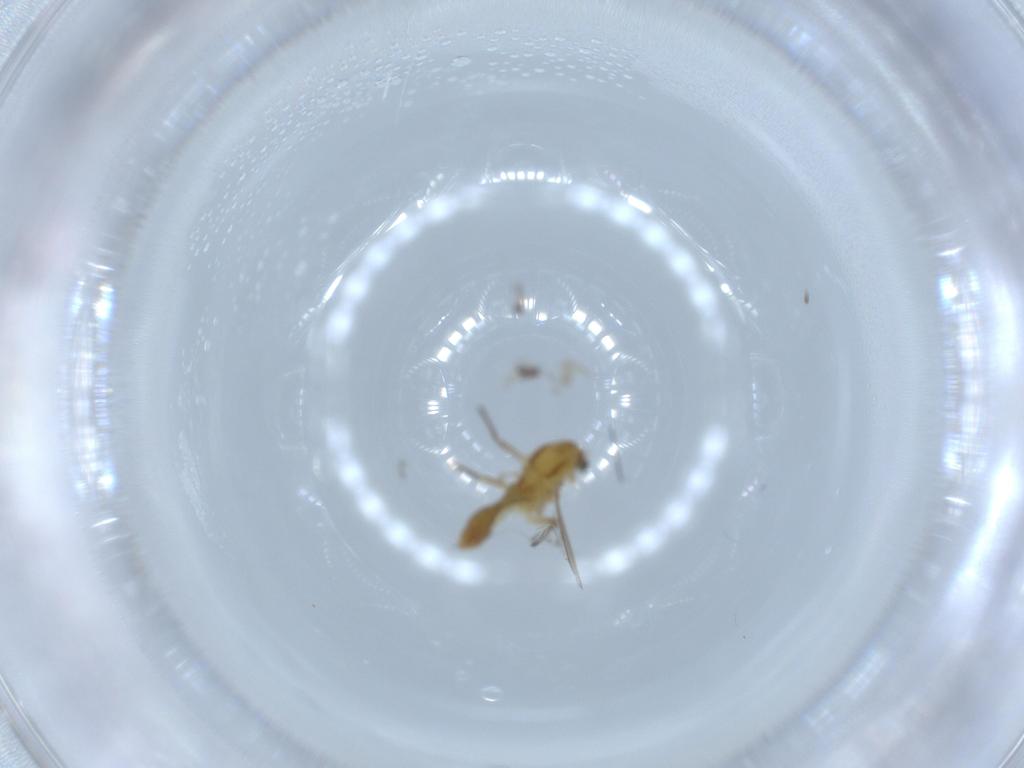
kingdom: Animalia
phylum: Arthropoda
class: Insecta
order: Diptera
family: Chironomidae
